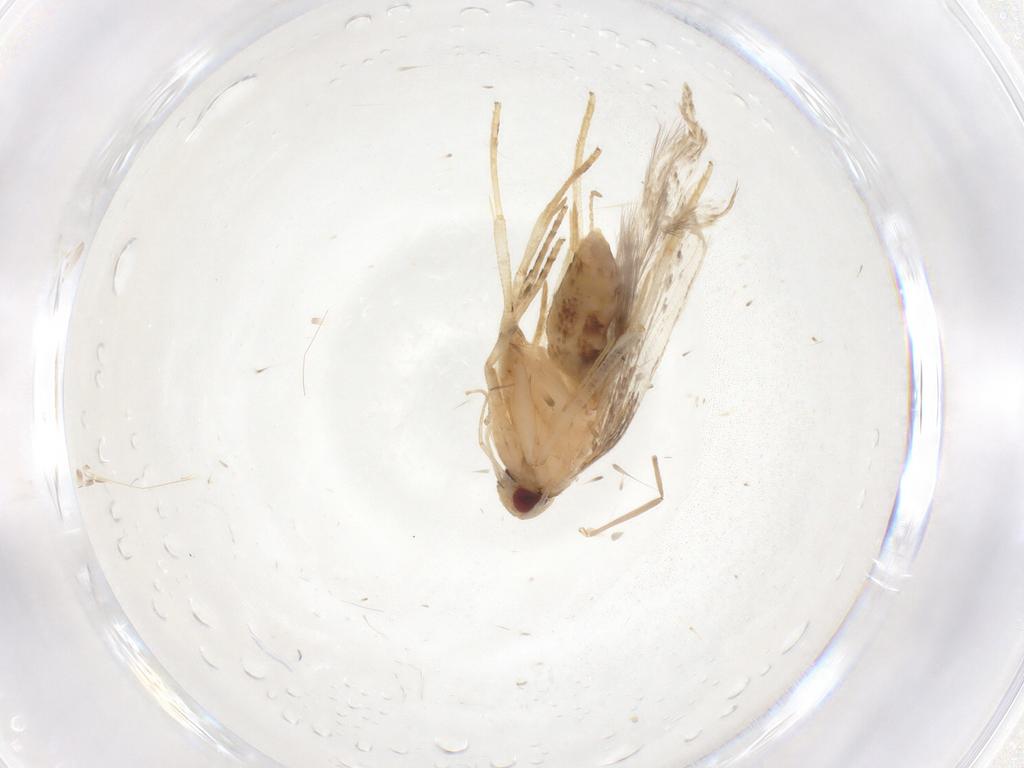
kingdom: Animalia
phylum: Arthropoda
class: Insecta
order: Lepidoptera
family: Cosmopterigidae
